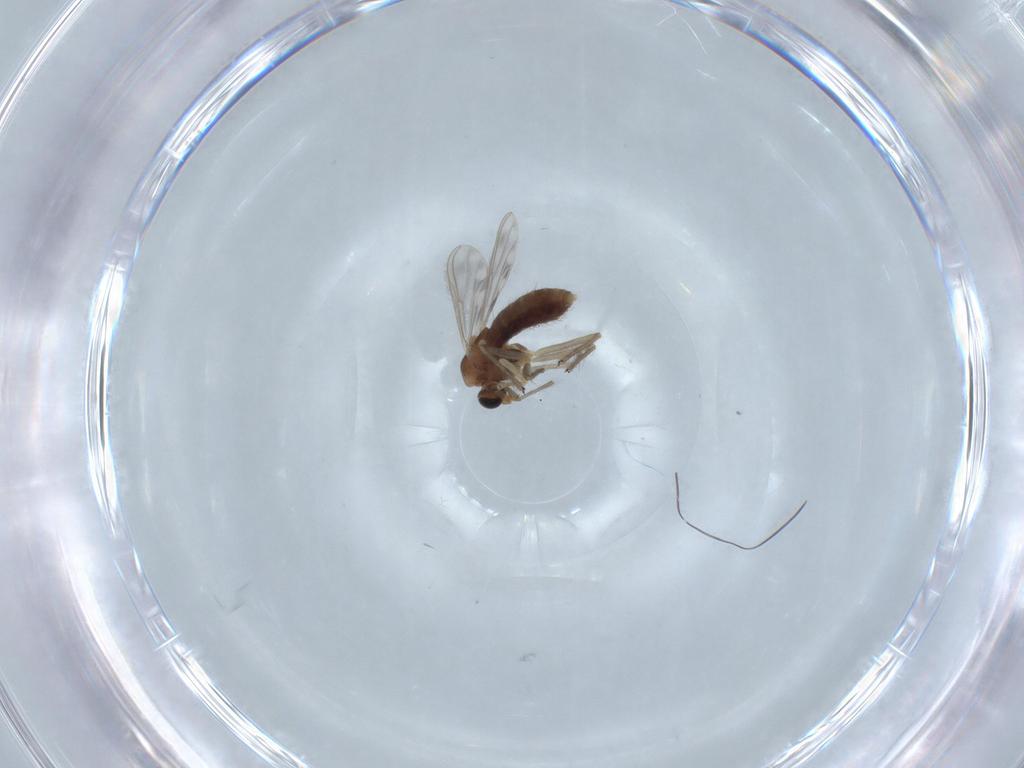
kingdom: Animalia
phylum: Arthropoda
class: Insecta
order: Diptera
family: Chironomidae
